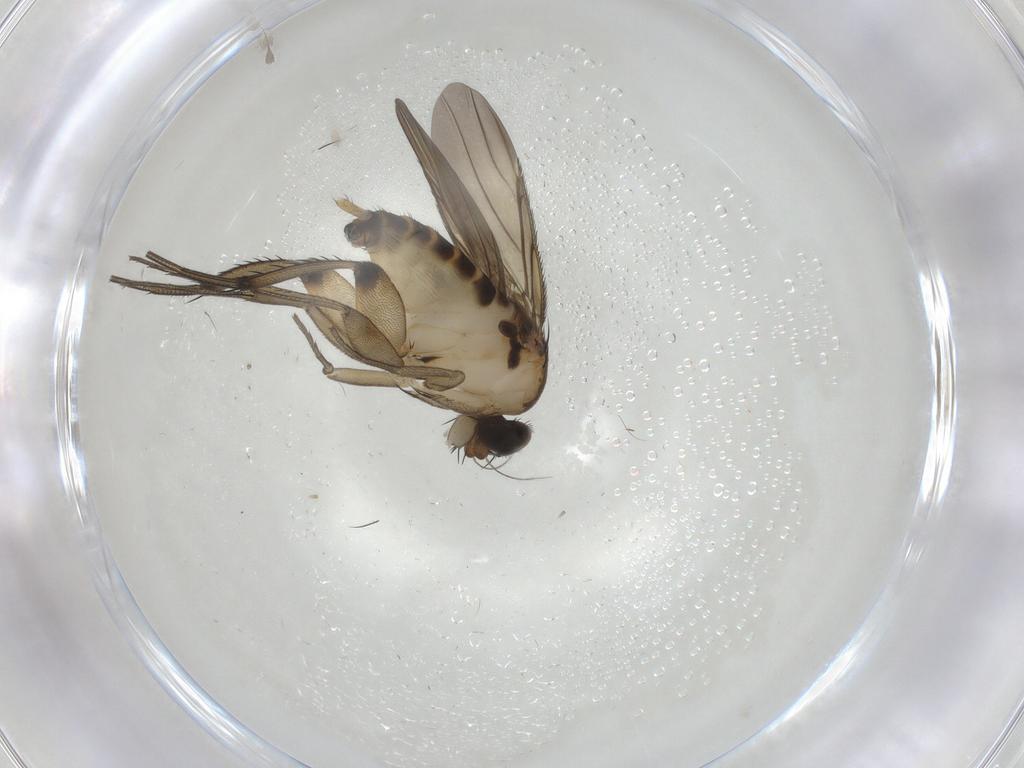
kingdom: Animalia
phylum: Arthropoda
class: Insecta
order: Diptera
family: Phoridae
